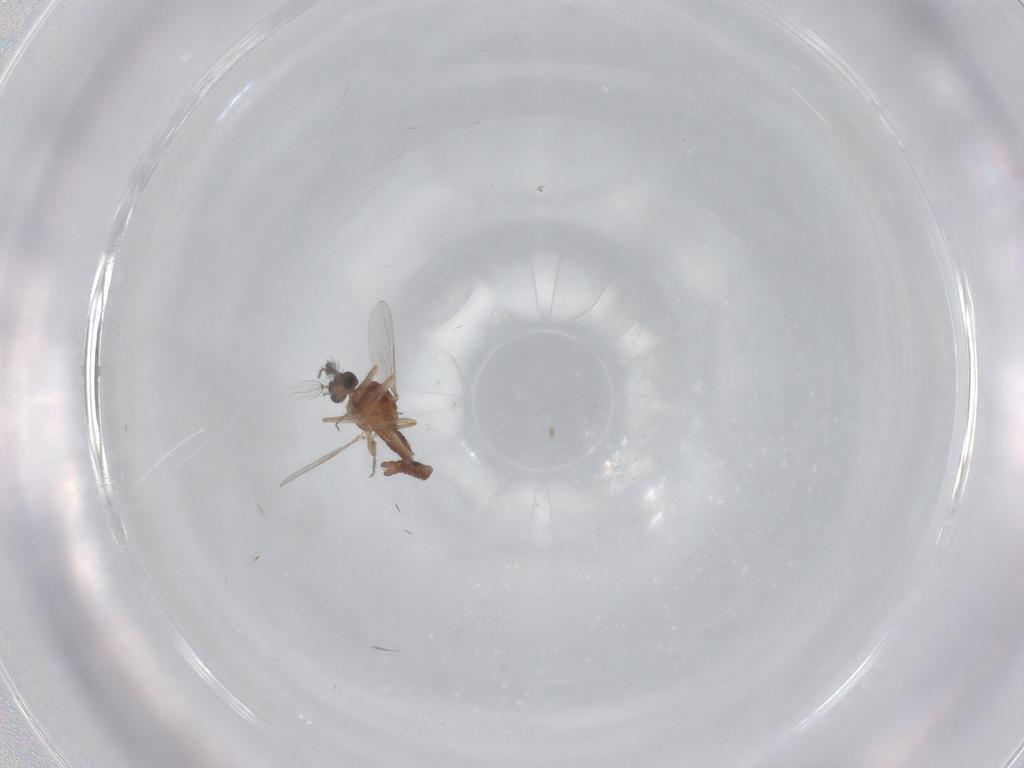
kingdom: Animalia
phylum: Arthropoda
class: Insecta
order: Diptera
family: Ceratopogonidae
